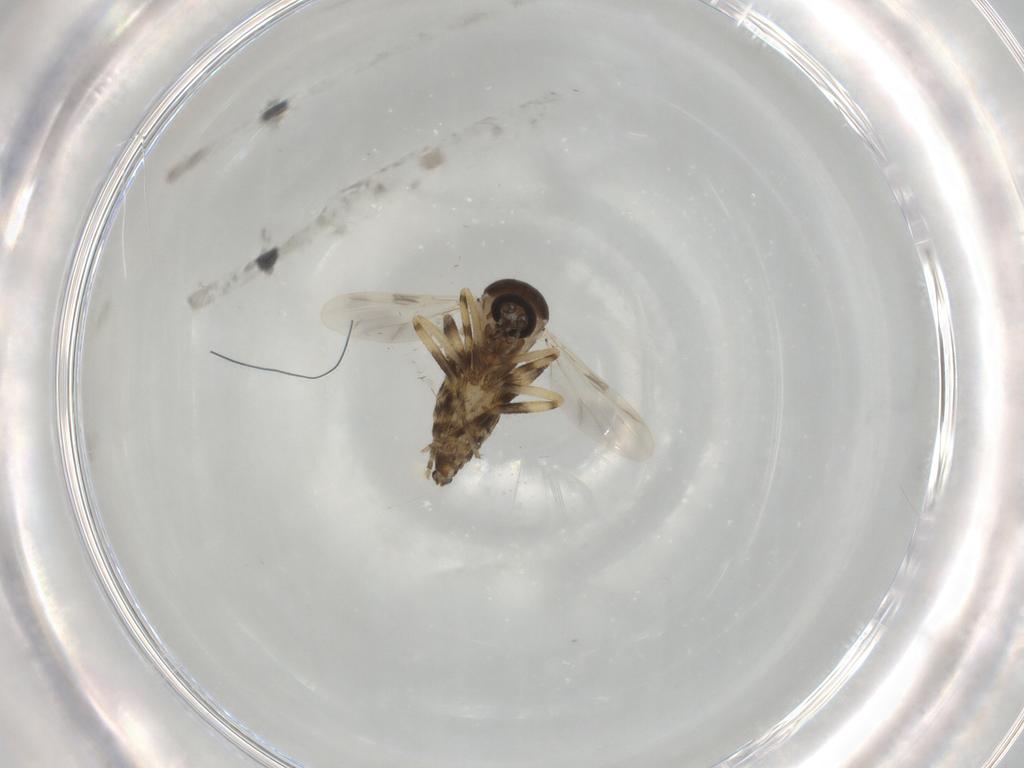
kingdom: Animalia
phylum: Arthropoda
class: Insecta
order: Diptera
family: Ceratopogonidae
